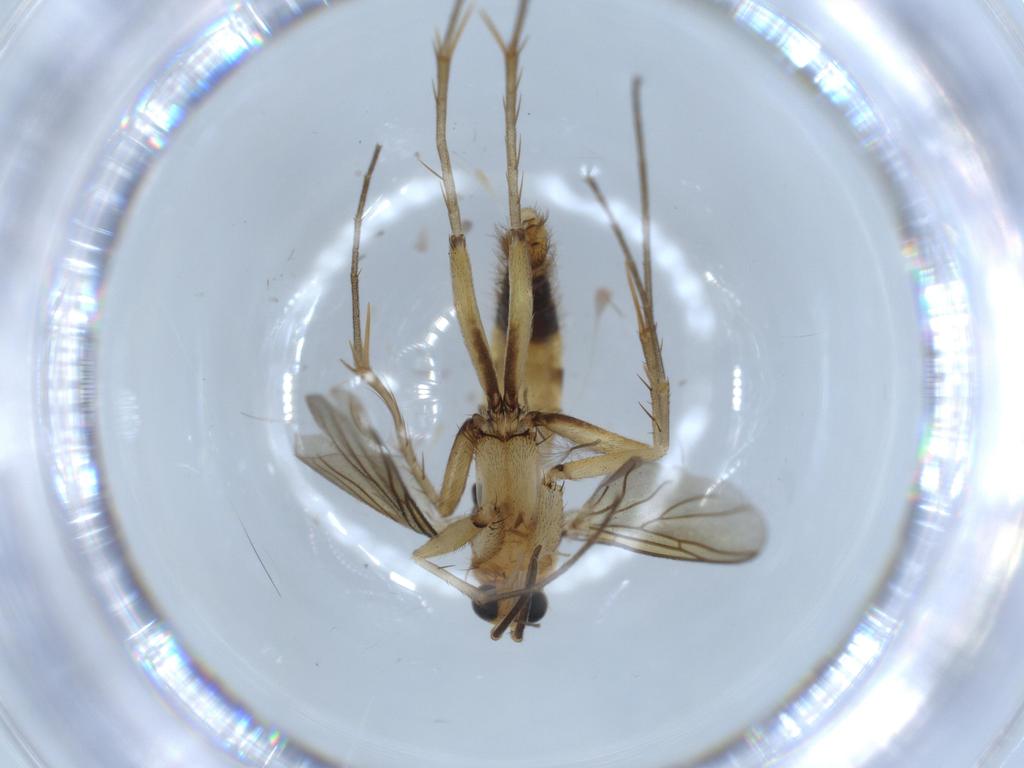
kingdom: Animalia
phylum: Arthropoda
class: Insecta
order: Diptera
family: Mycetophilidae
